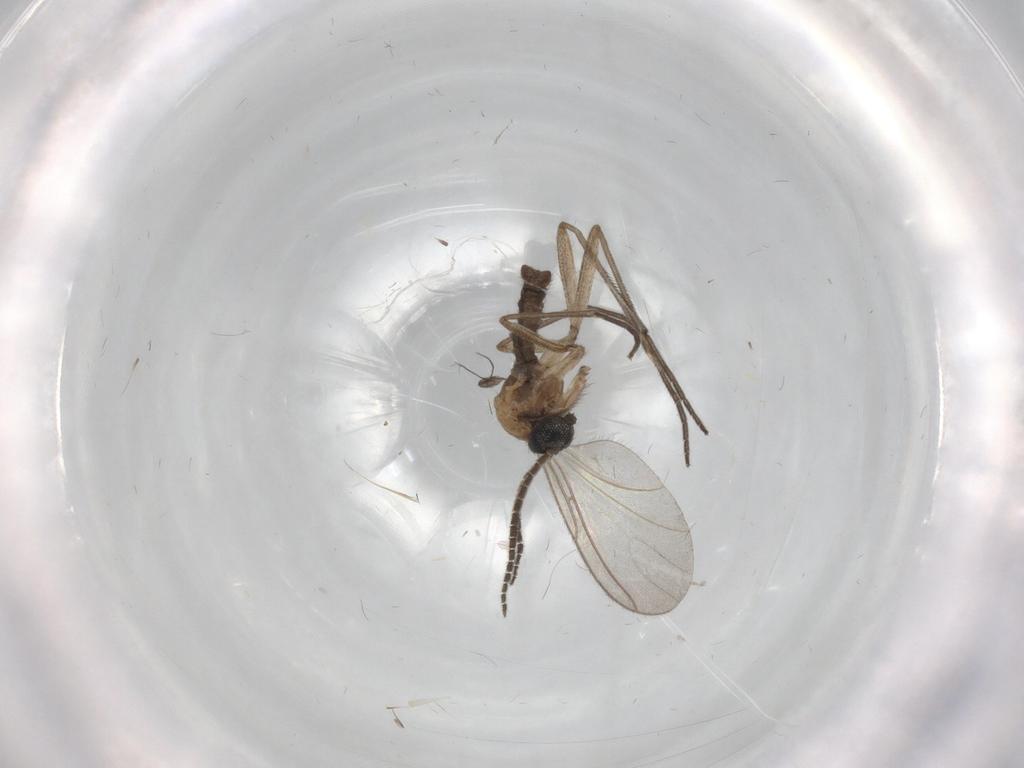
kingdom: Animalia
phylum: Arthropoda
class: Insecta
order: Diptera
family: Sciaridae
